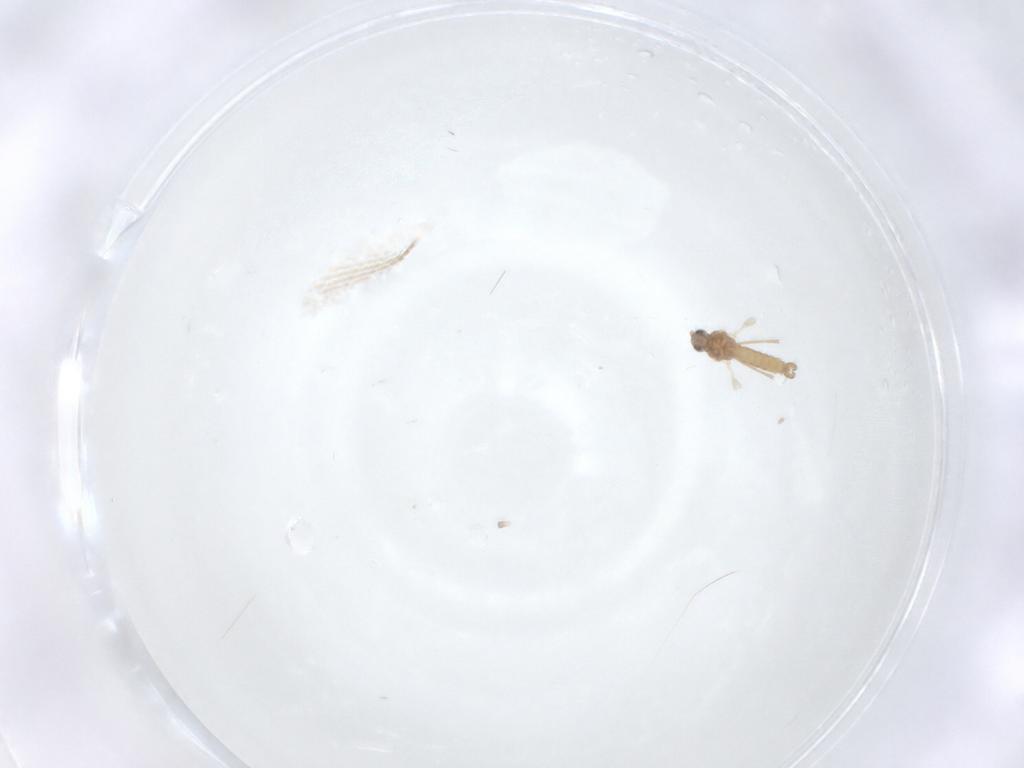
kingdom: Animalia
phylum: Arthropoda
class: Insecta
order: Diptera
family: Cecidomyiidae
